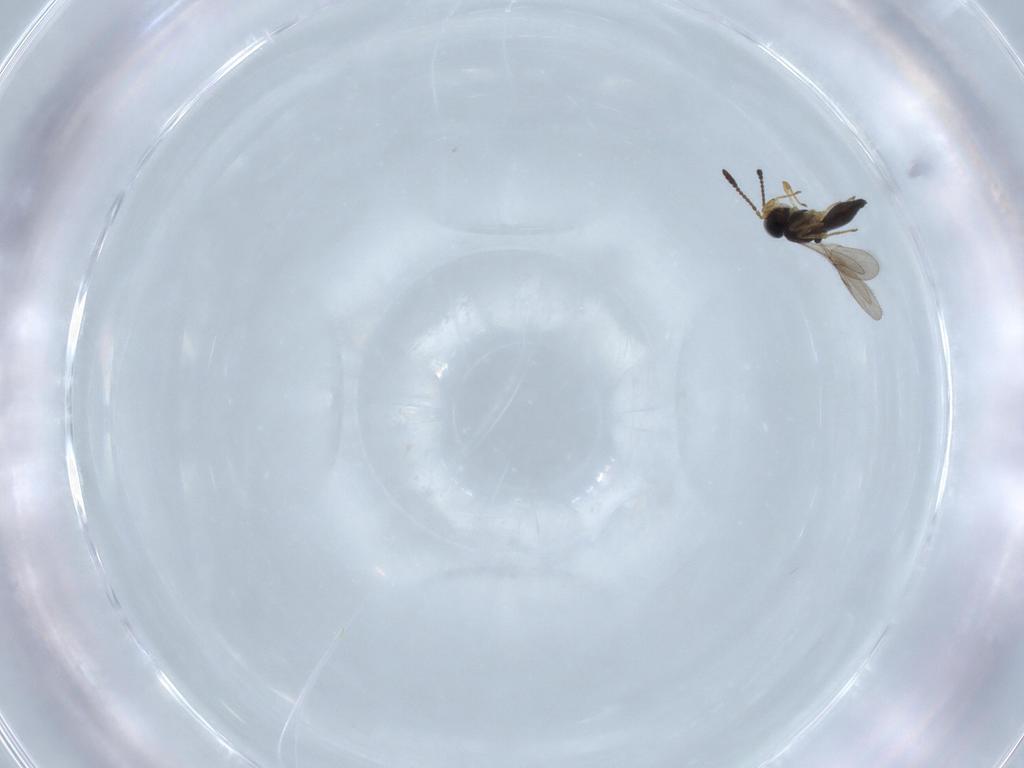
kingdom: Animalia
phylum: Arthropoda
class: Insecta
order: Hymenoptera
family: Scelionidae
